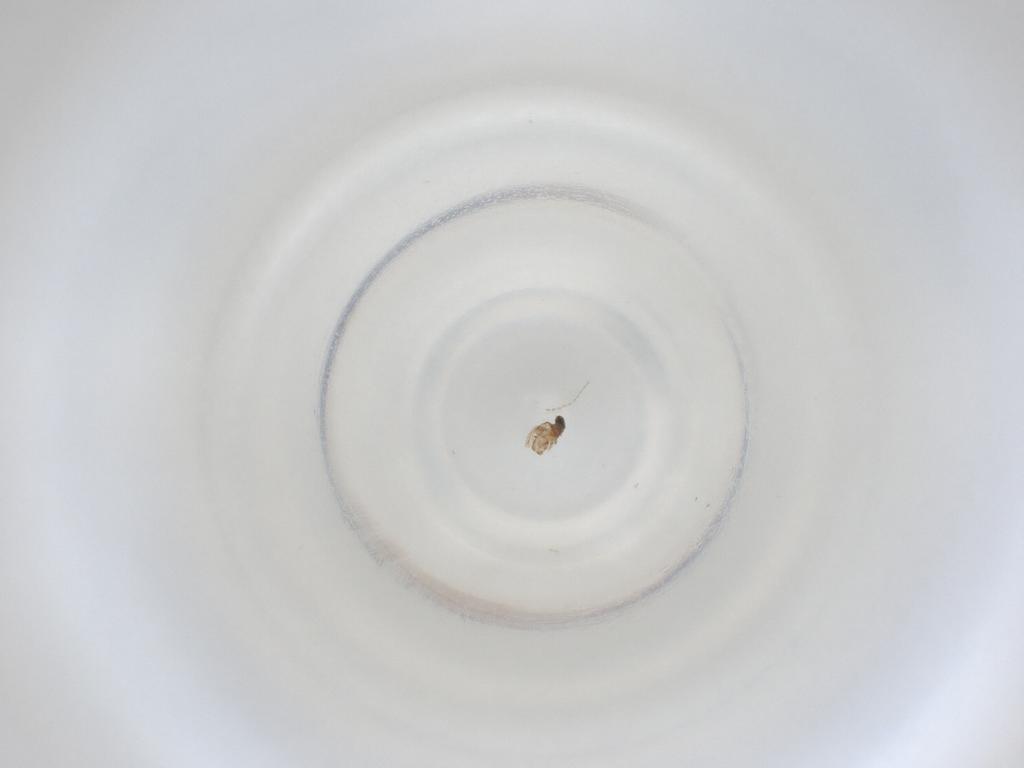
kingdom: Animalia
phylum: Arthropoda
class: Insecta
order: Diptera
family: Cecidomyiidae
